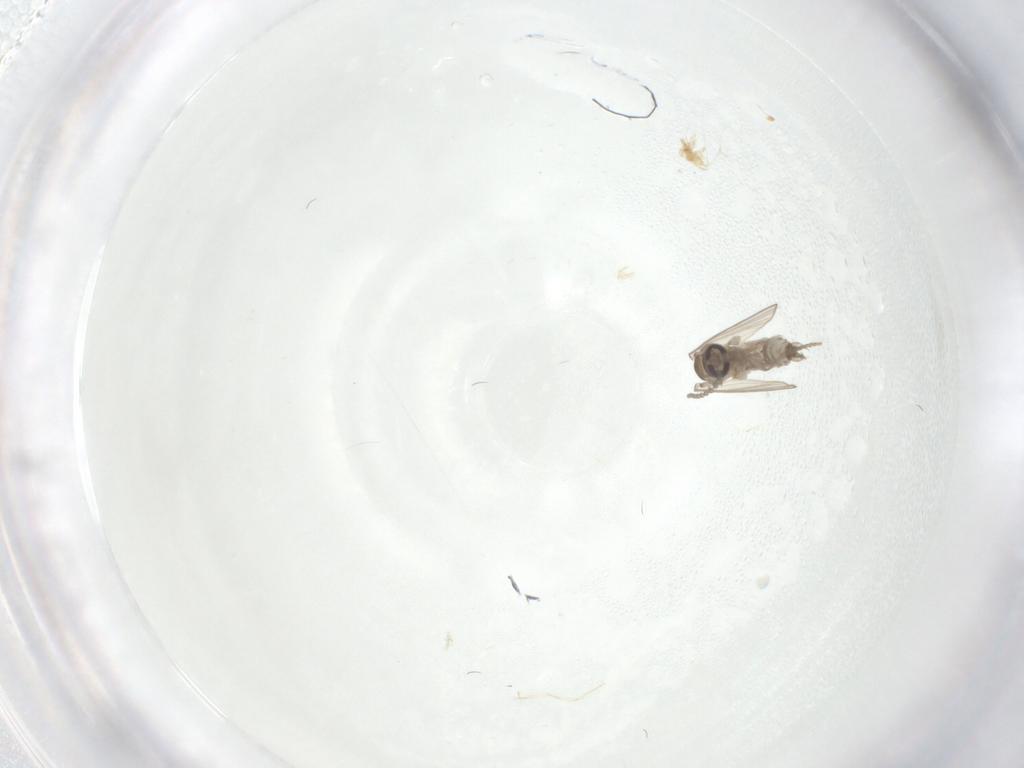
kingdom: Animalia
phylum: Arthropoda
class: Insecta
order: Diptera
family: Psychodidae
